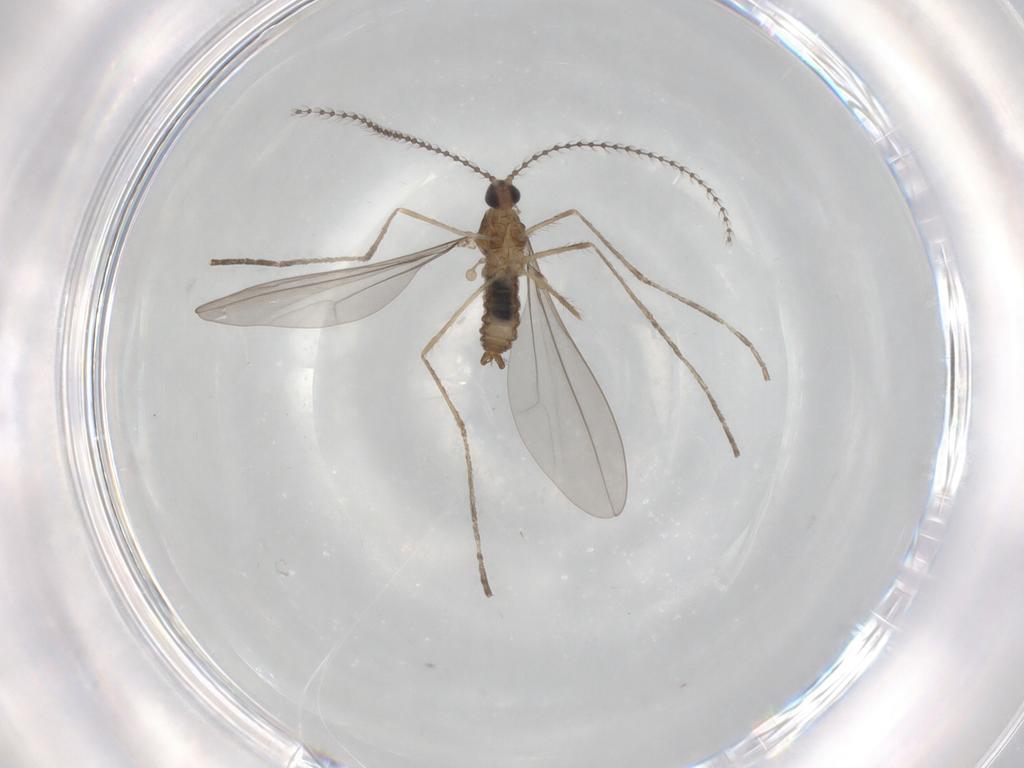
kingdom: Animalia
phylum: Arthropoda
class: Insecta
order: Diptera
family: Cecidomyiidae
